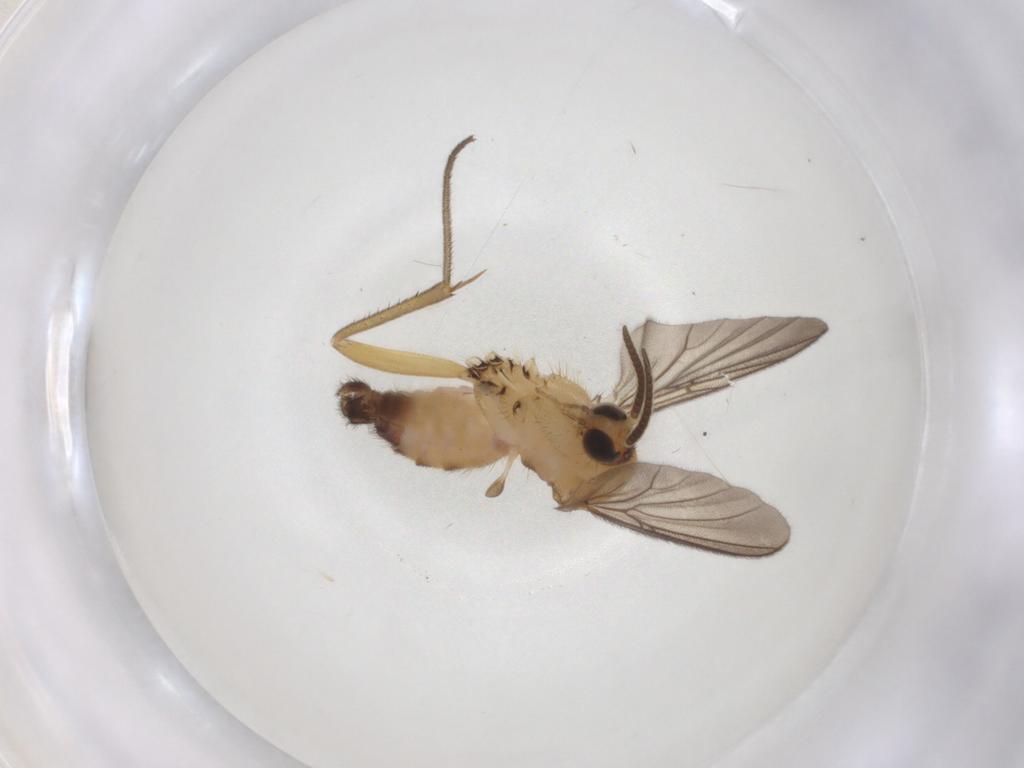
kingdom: Animalia
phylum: Arthropoda
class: Insecta
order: Diptera
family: Mycetophilidae
